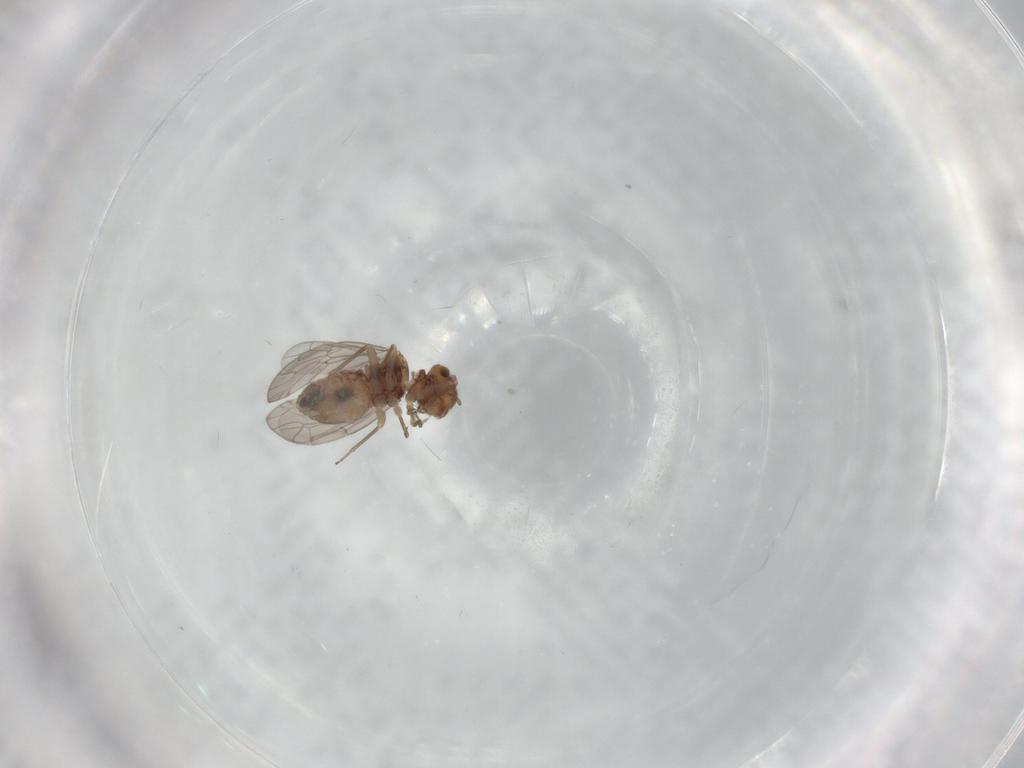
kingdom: Animalia
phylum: Arthropoda
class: Insecta
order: Psocodea
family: Ectopsocidae
